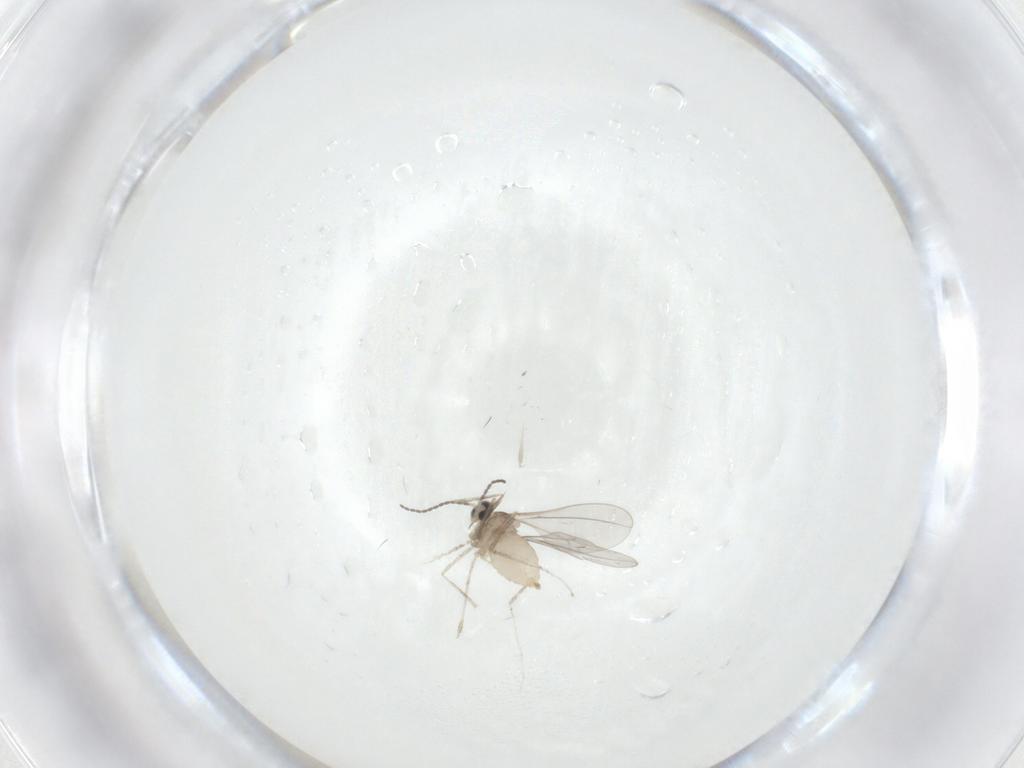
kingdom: Animalia
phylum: Arthropoda
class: Insecta
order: Diptera
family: Cecidomyiidae
